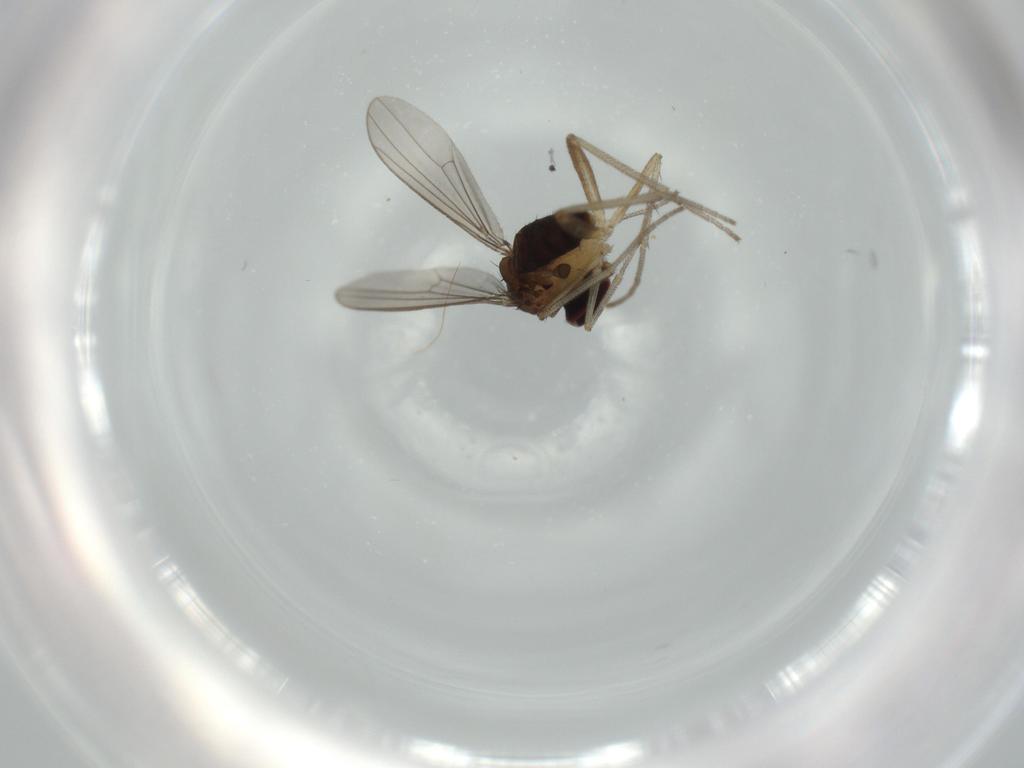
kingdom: Animalia
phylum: Arthropoda
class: Insecta
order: Diptera
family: Dolichopodidae
